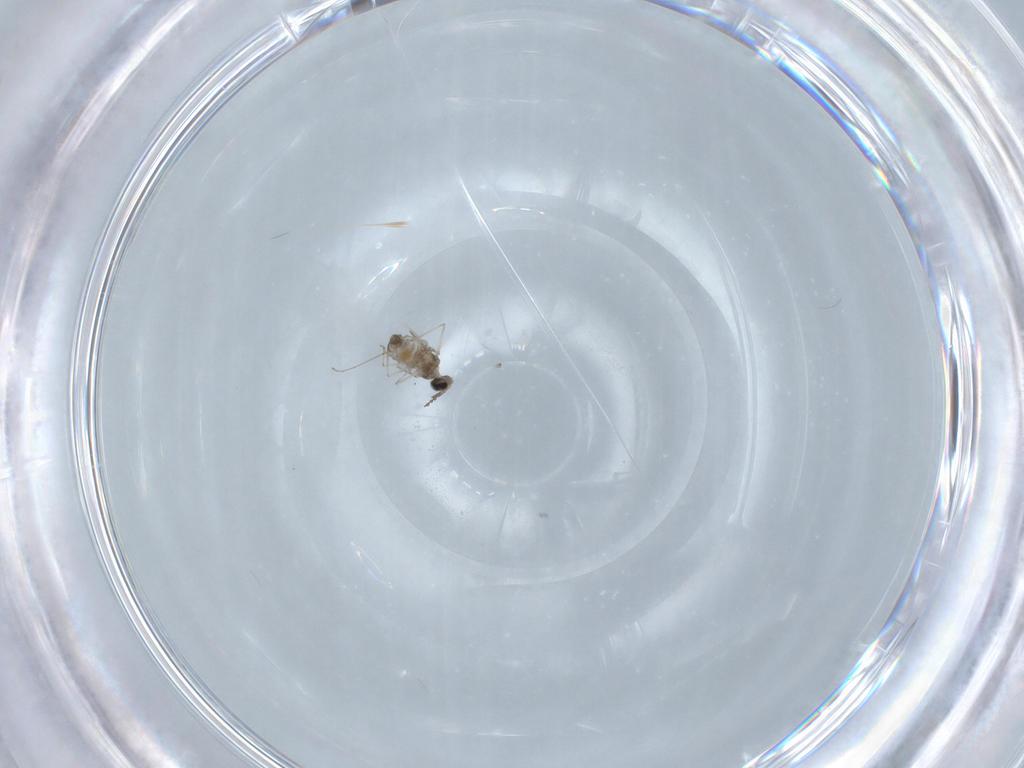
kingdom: Animalia
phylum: Arthropoda
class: Insecta
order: Diptera
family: Cecidomyiidae
